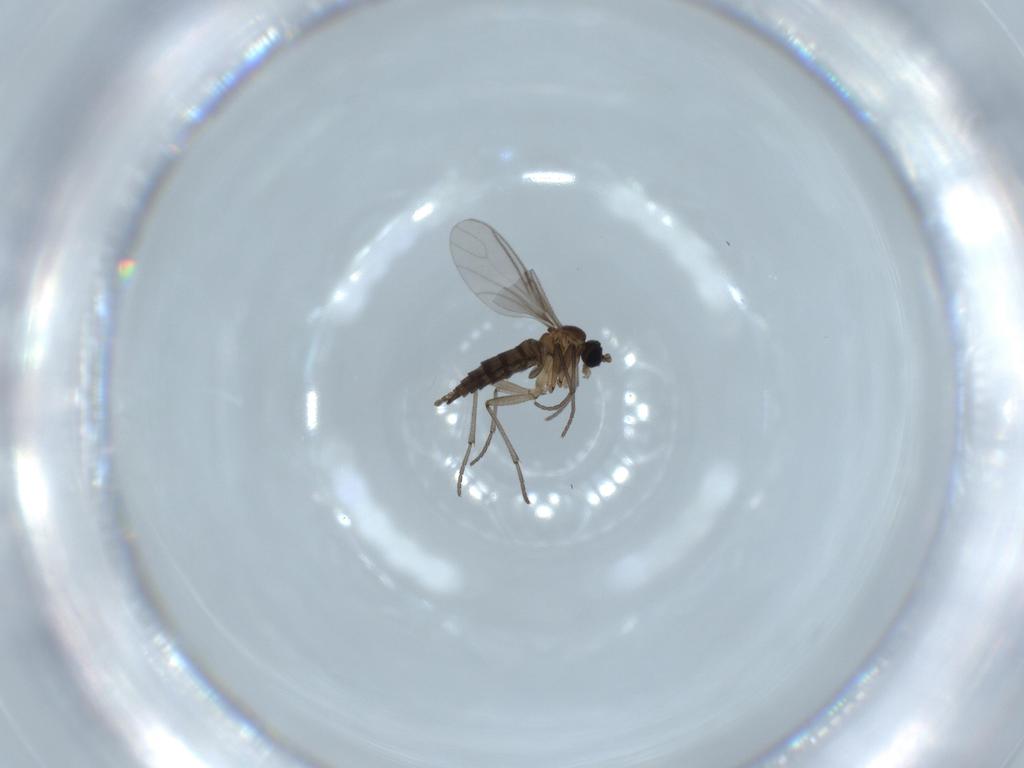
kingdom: Animalia
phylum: Arthropoda
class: Insecta
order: Diptera
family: Sciaridae
